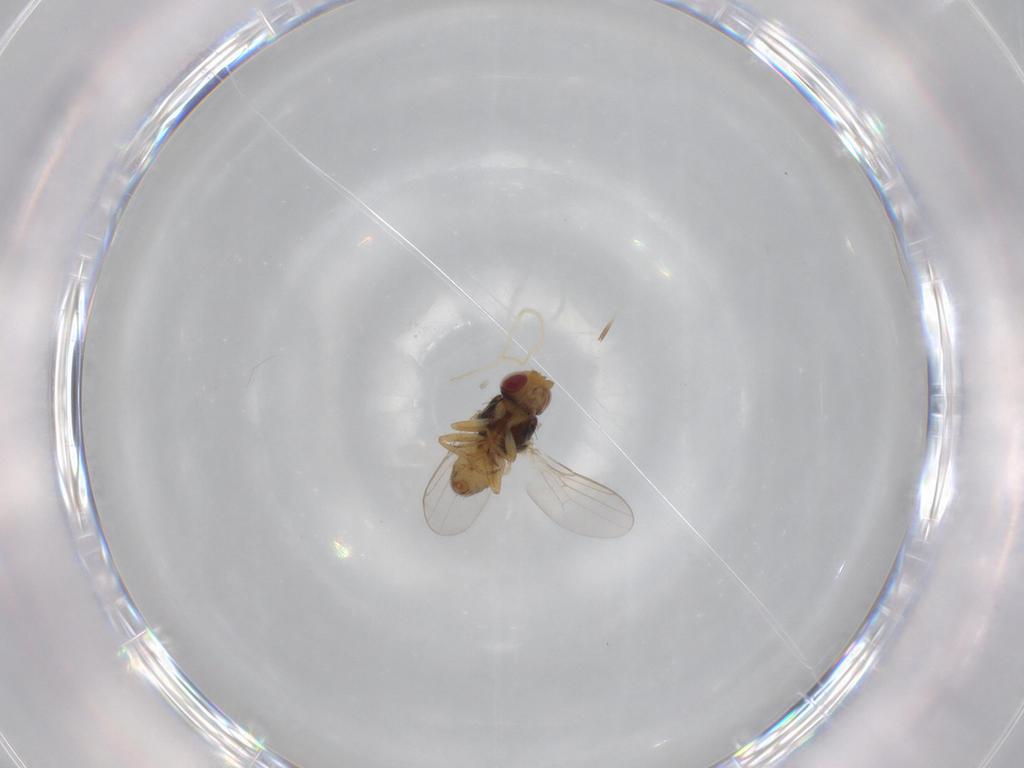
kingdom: Animalia
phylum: Arthropoda
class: Insecta
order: Diptera
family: Chloropidae
